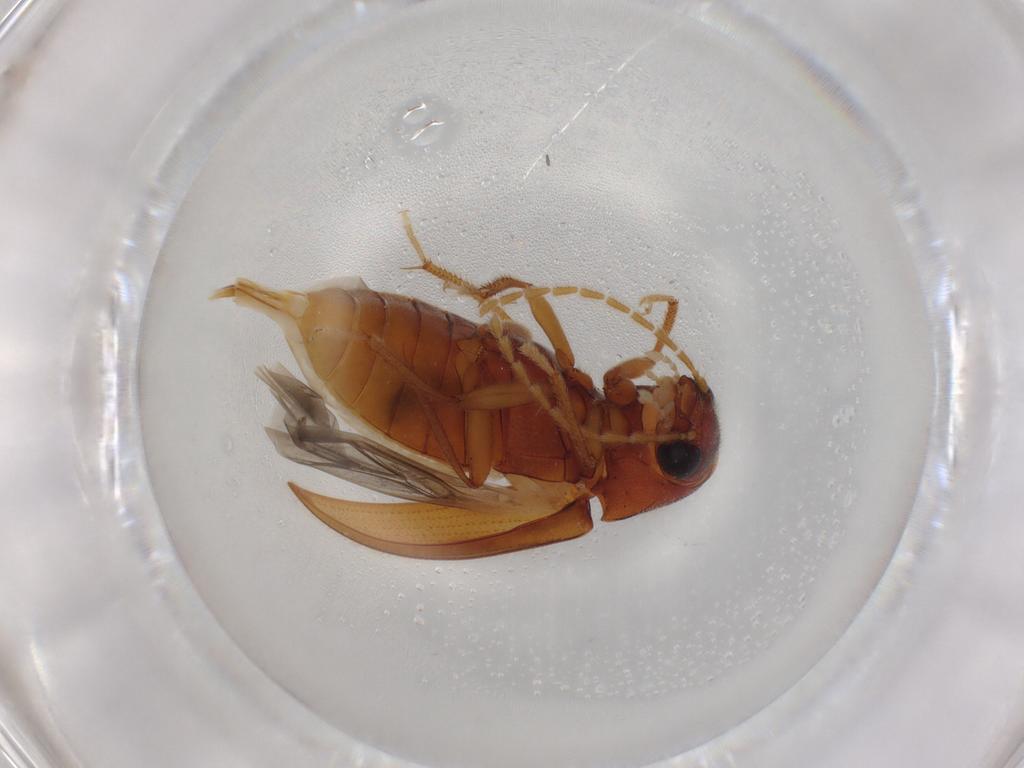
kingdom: Animalia
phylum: Arthropoda
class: Insecta
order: Coleoptera
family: Ptilodactylidae
